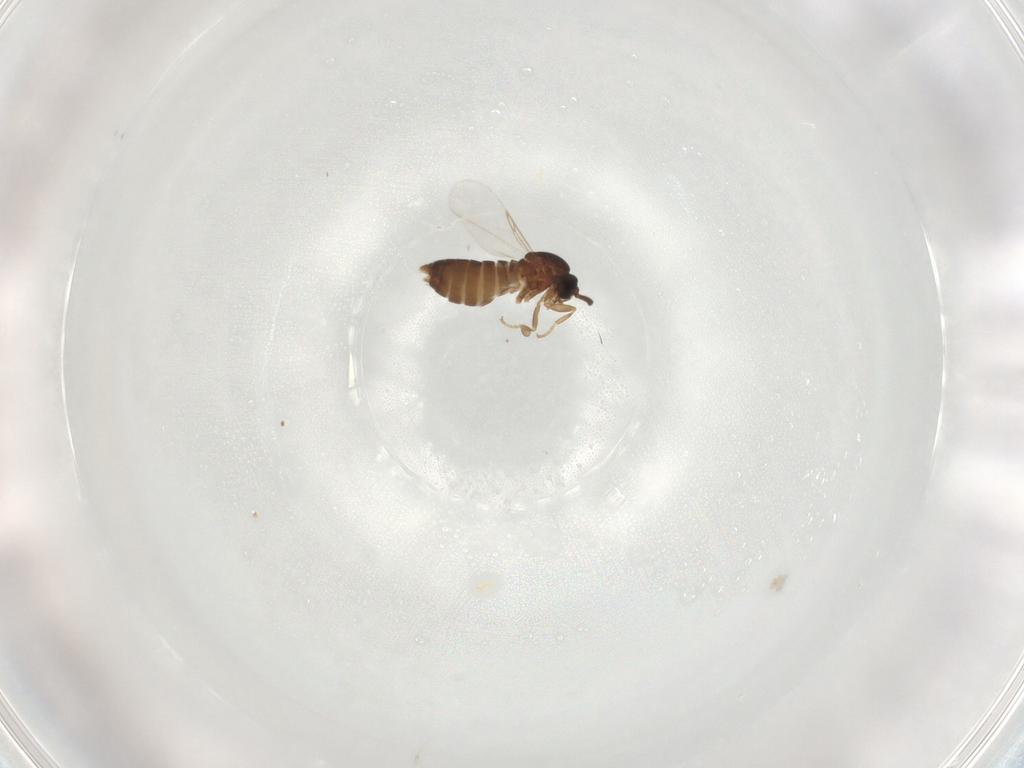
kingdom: Animalia
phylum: Arthropoda
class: Insecta
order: Diptera
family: Scatopsidae
